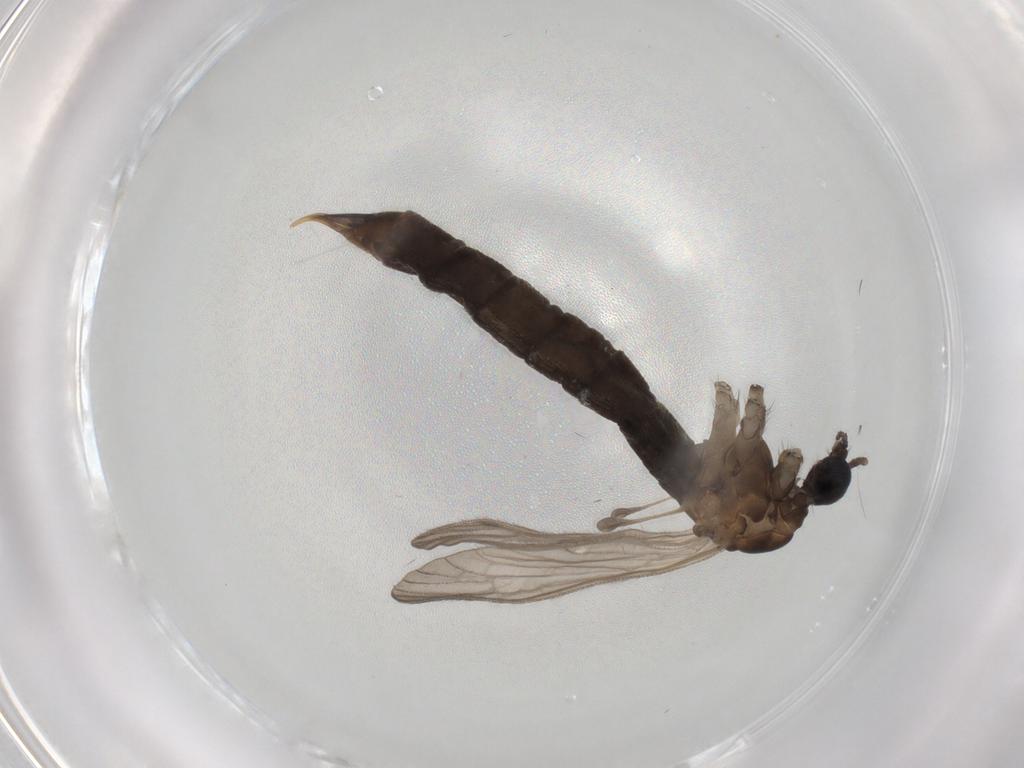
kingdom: Animalia
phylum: Arthropoda
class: Insecta
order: Diptera
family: Limoniidae
